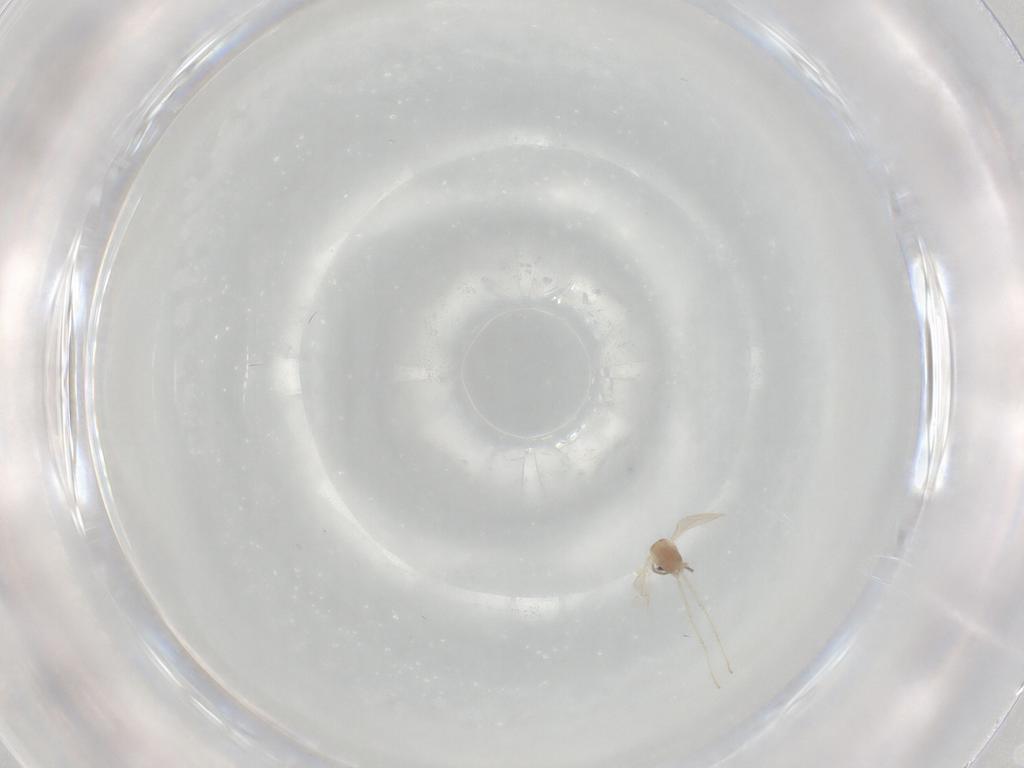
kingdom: Animalia
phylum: Arthropoda
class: Insecta
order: Diptera
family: Cecidomyiidae
